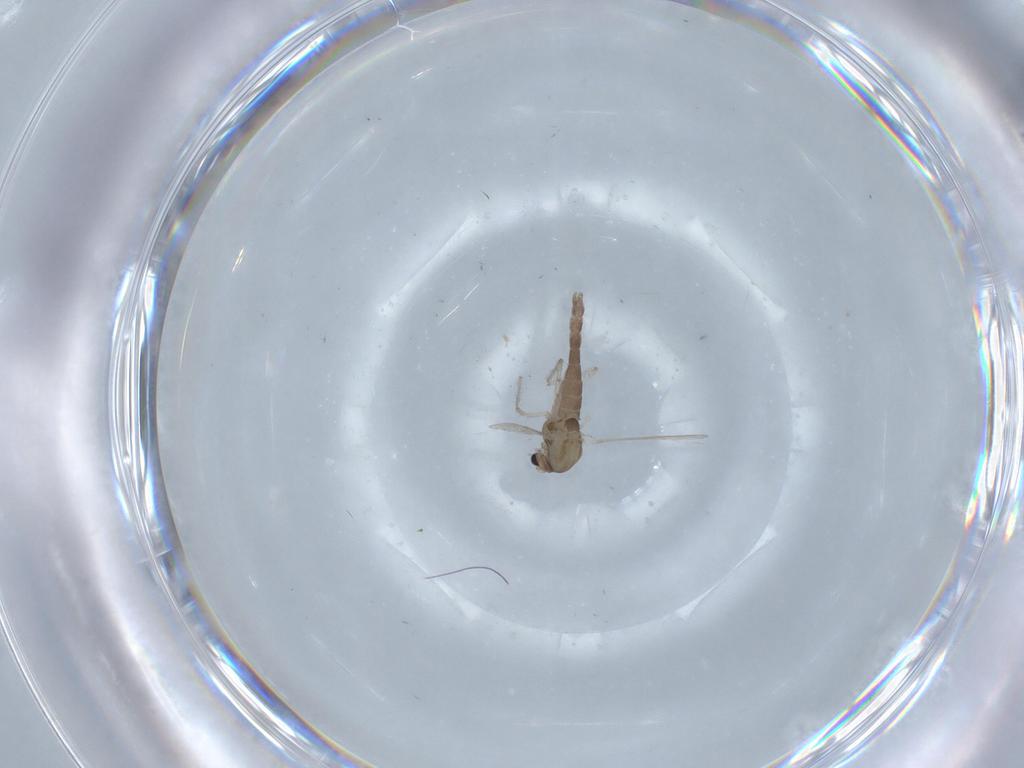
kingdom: Animalia
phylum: Arthropoda
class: Insecta
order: Diptera
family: Chironomidae
